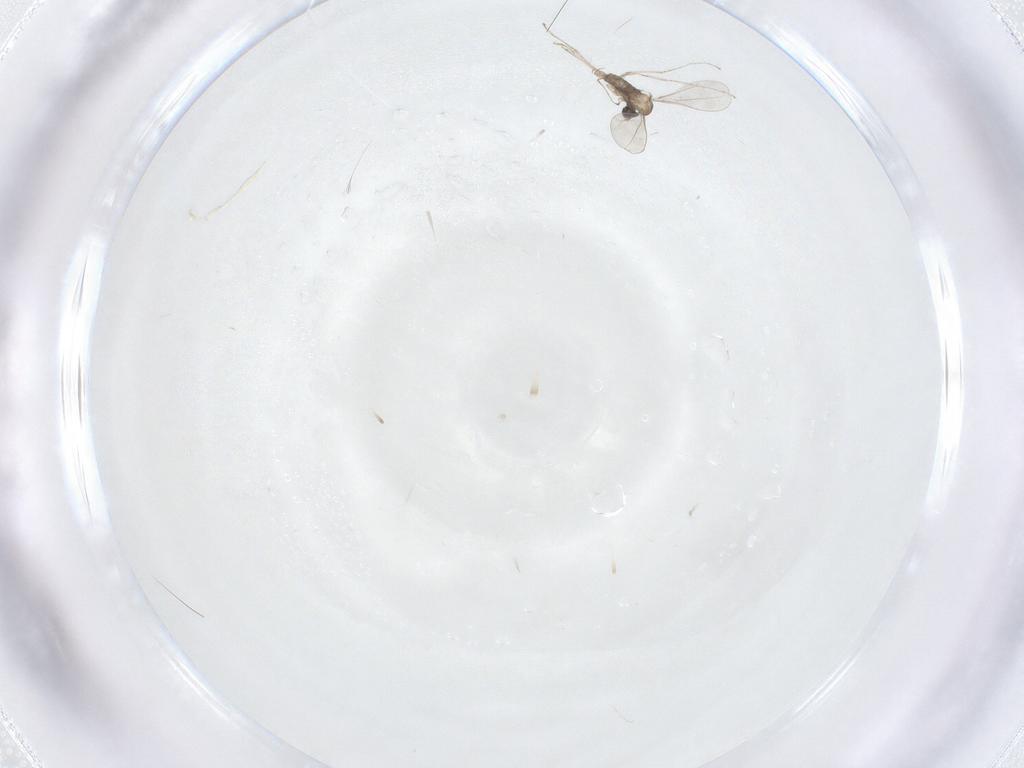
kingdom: Animalia
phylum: Arthropoda
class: Insecta
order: Diptera
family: Cecidomyiidae
